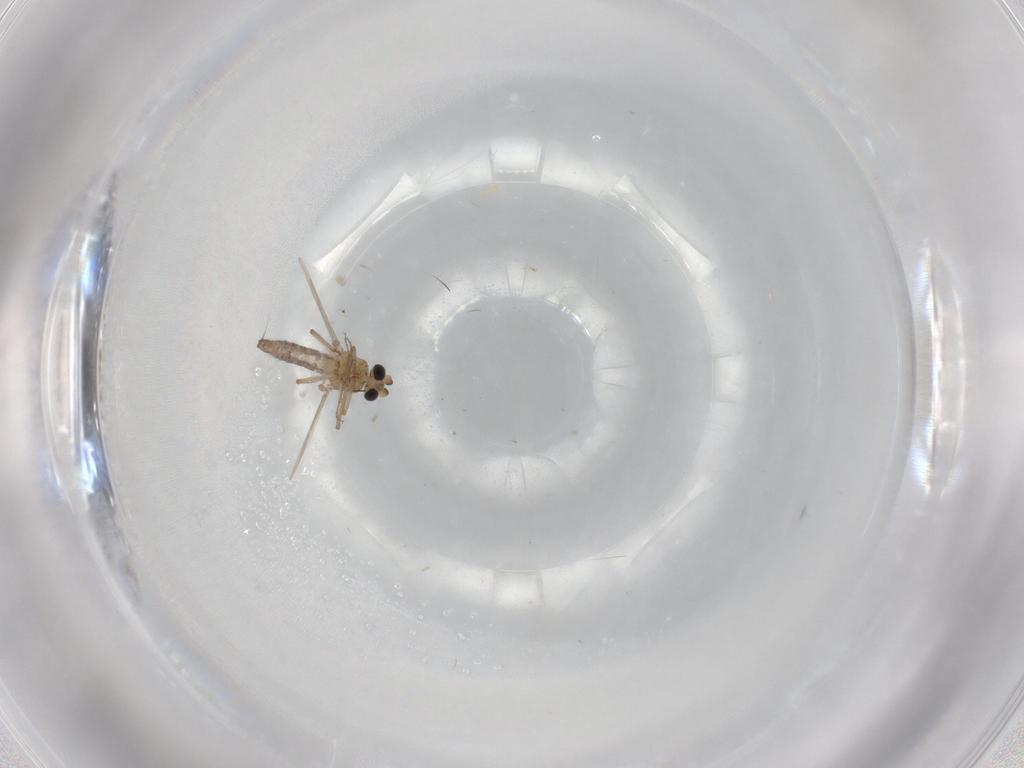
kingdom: Animalia
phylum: Arthropoda
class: Insecta
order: Diptera
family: Ceratopogonidae
